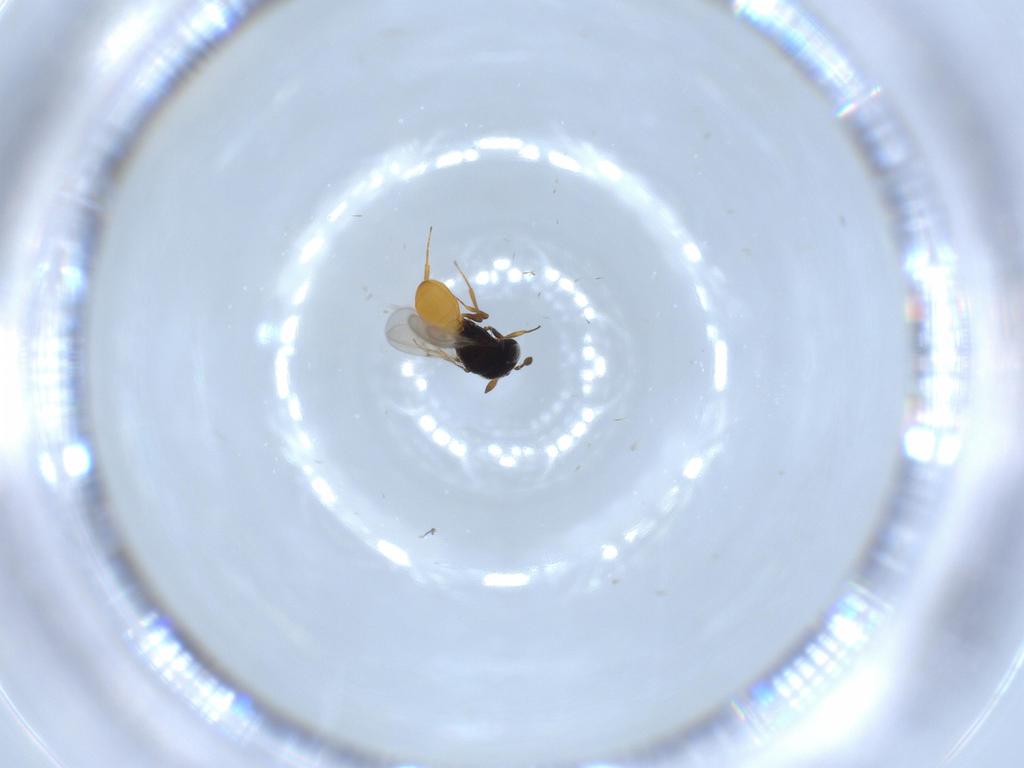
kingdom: Animalia
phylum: Arthropoda
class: Insecta
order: Hymenoptera
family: Scelionidae
